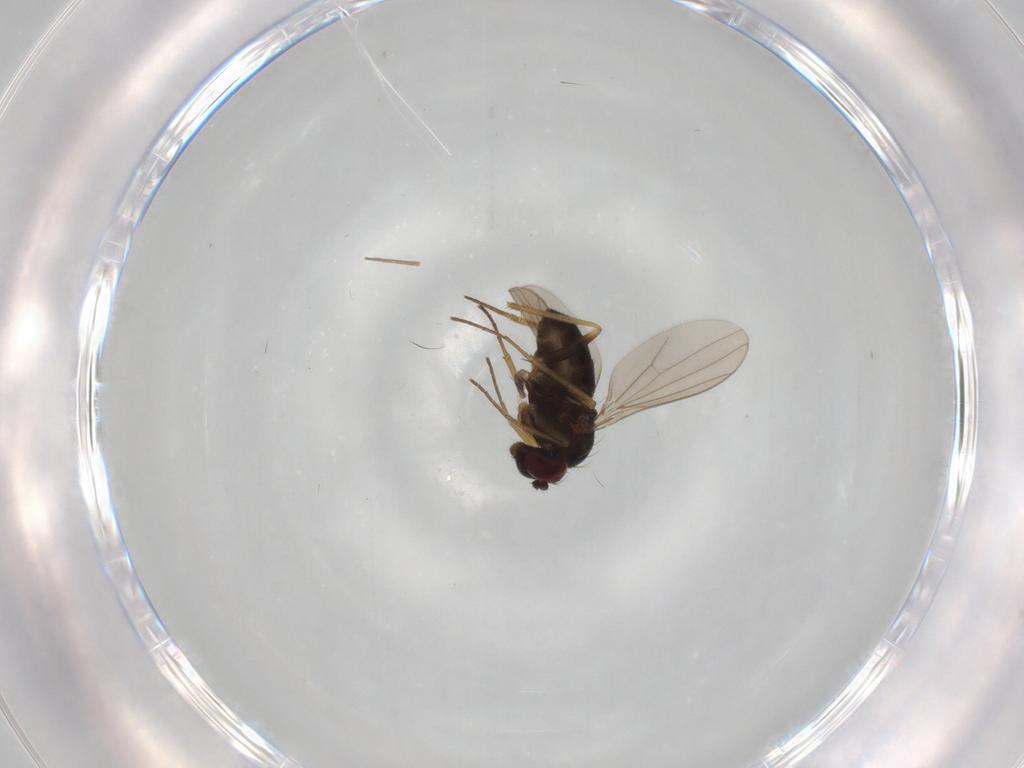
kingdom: Animalia
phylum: Arthropoda
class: Insecta
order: Diptera
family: Dolichopodidae
